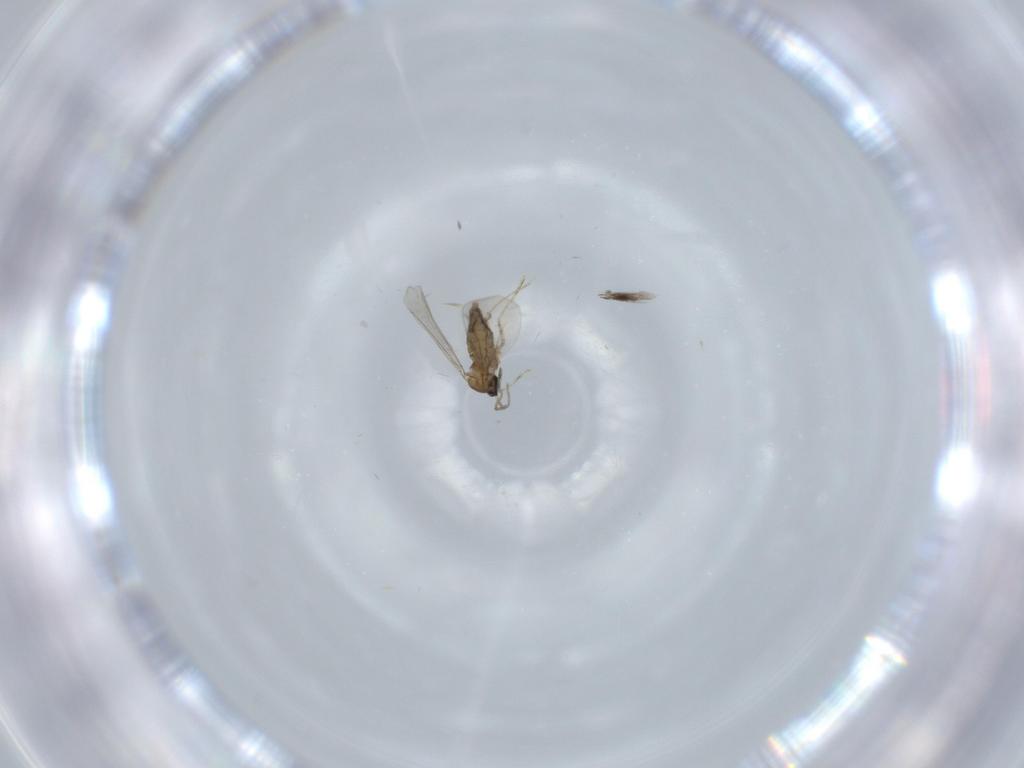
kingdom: Animalia
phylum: Arthropoda
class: Insecta
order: Diptera
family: Cecidomyiidae
